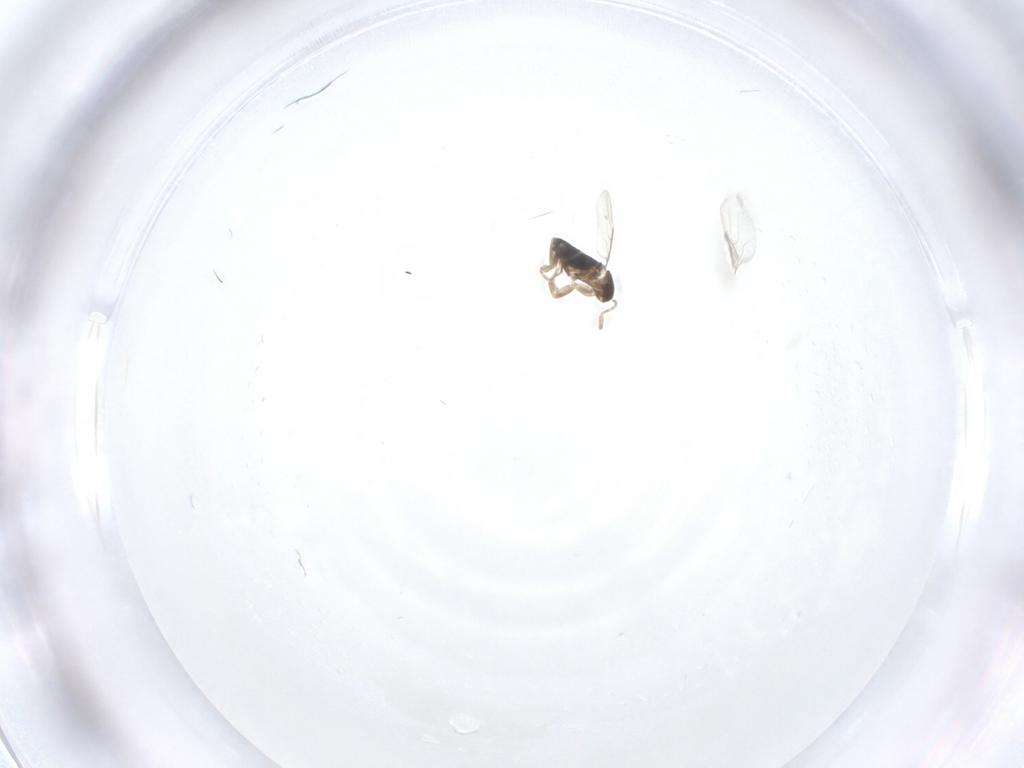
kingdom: Animalia
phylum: Arthropoda
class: Insecta
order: Diptera
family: Phoridae
